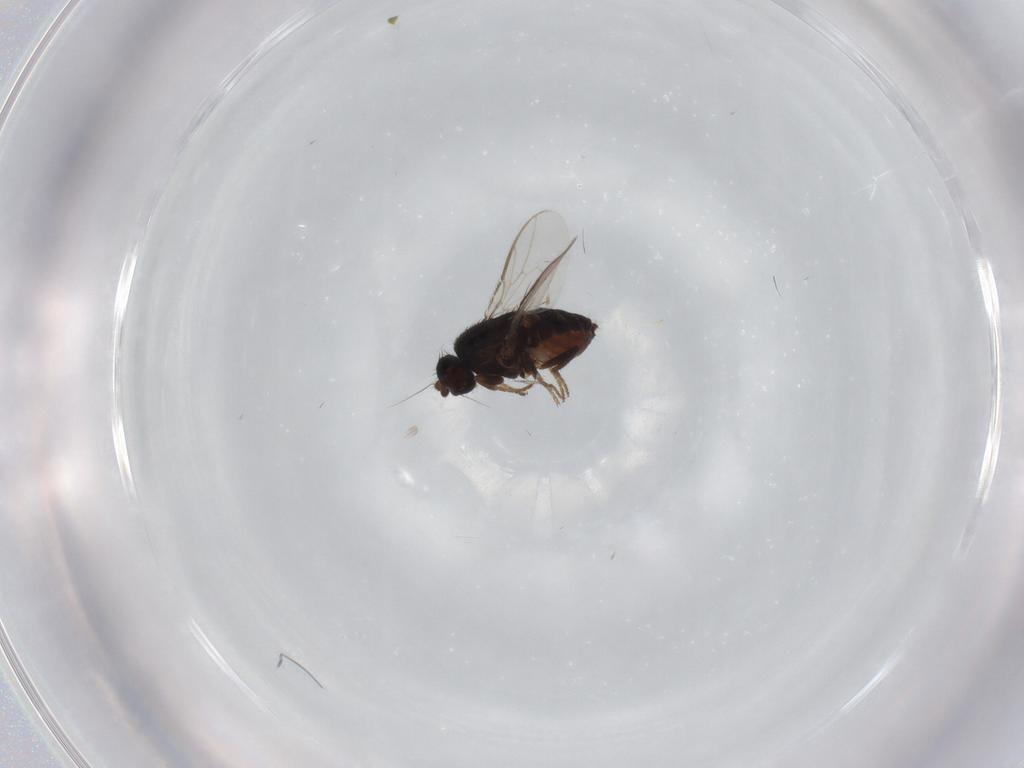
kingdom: Animalia
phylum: Arthropoda
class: Insecta
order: Diptera
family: Sphaeroceridae
